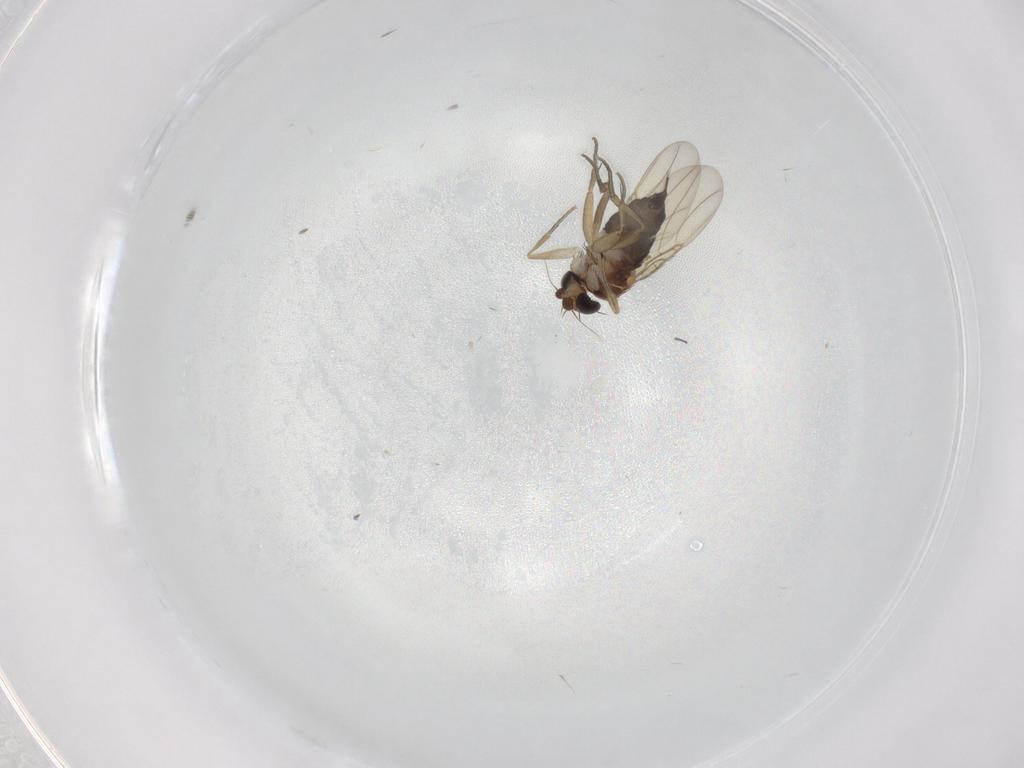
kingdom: Animalia
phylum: Arthropoda
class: Insecta
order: Diptera
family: Phoridae
